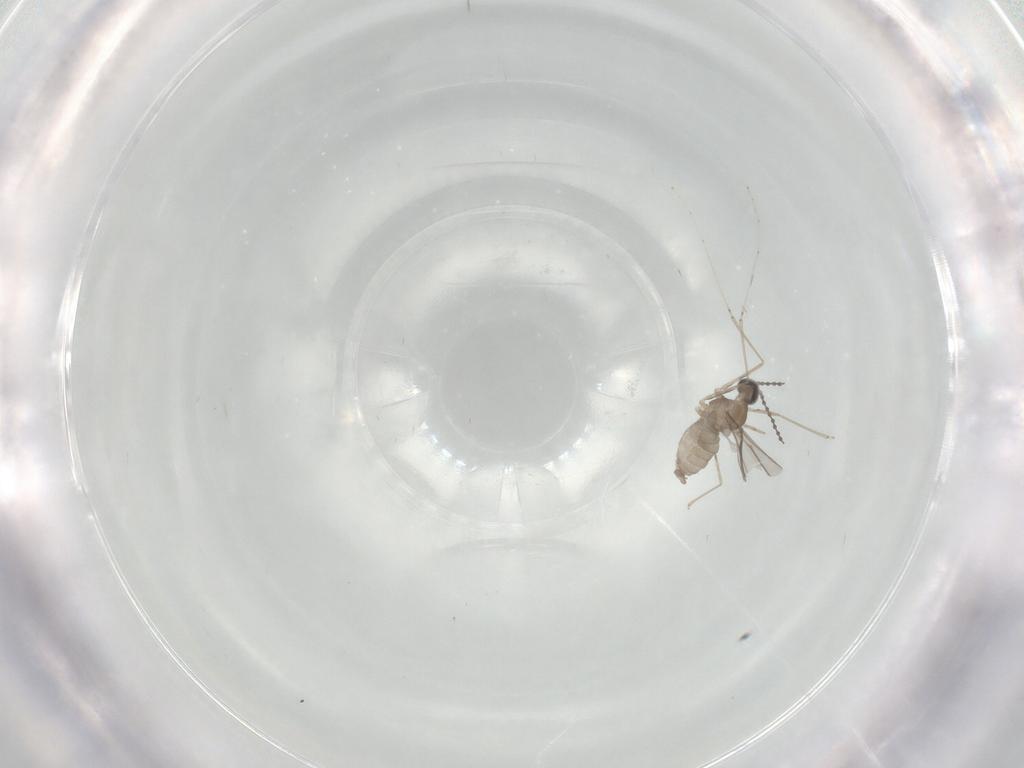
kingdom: Animalia
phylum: Arthropoda
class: Insecta
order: Diptera
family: Cecidomyiidae
